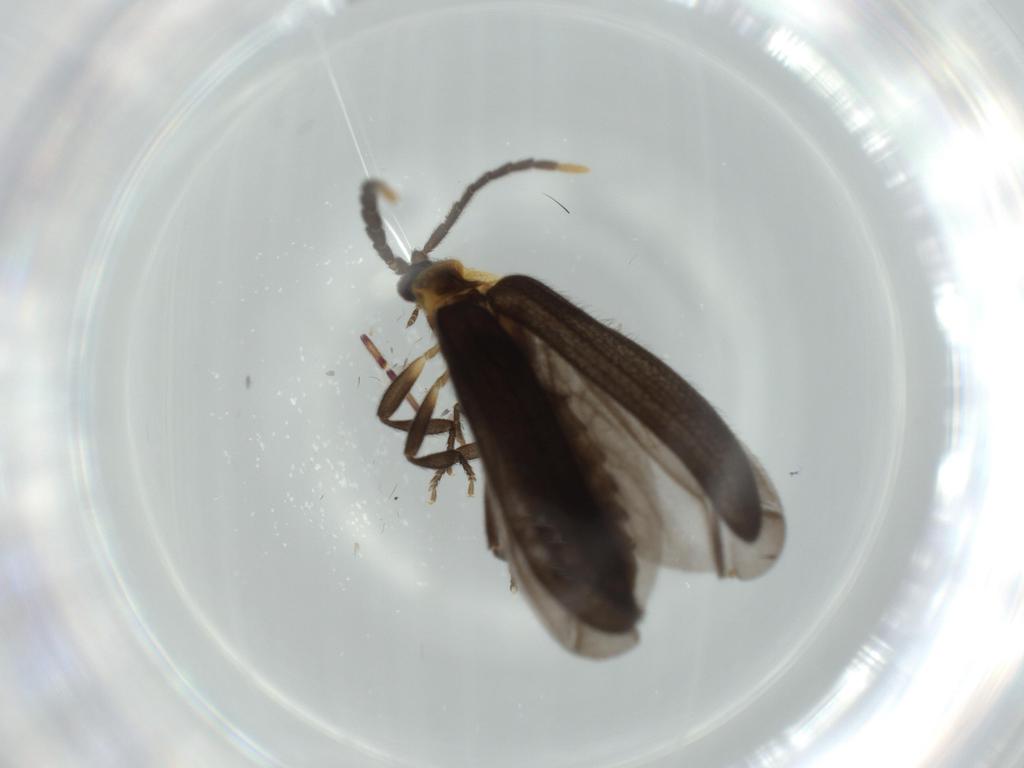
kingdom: Animalia
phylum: Arthropoda
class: Insecta
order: Coleoptera
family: Lycidae
